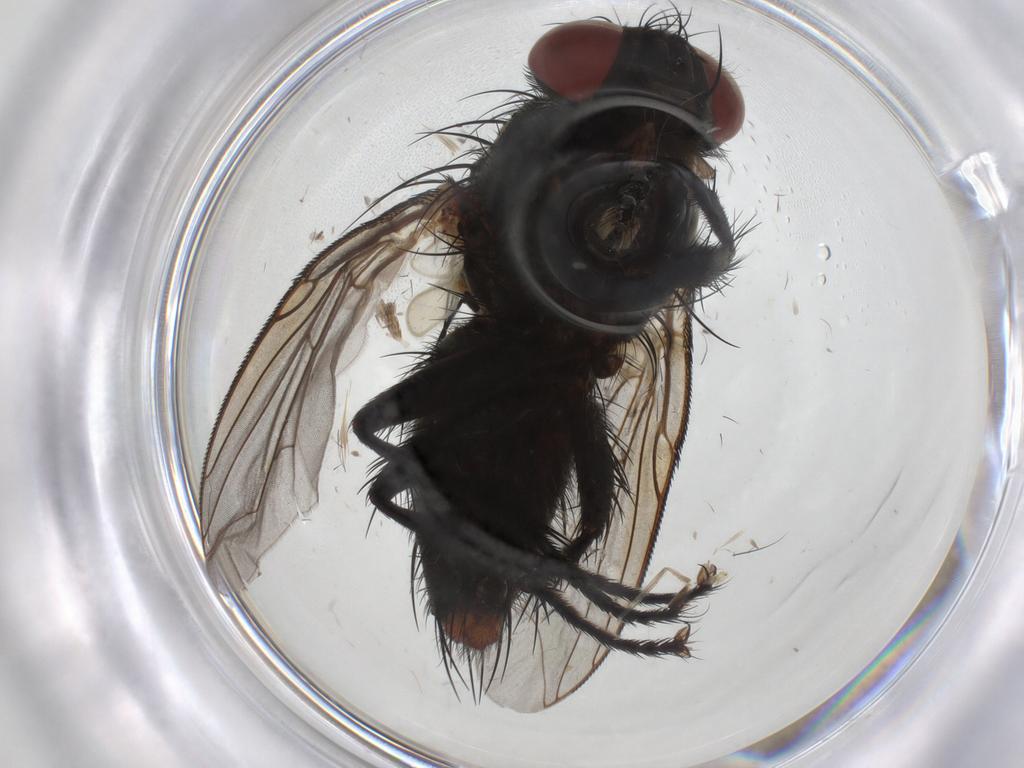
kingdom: Animalia
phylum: Arthropoda
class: Insecta
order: Diptera
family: Sarcophagidae
